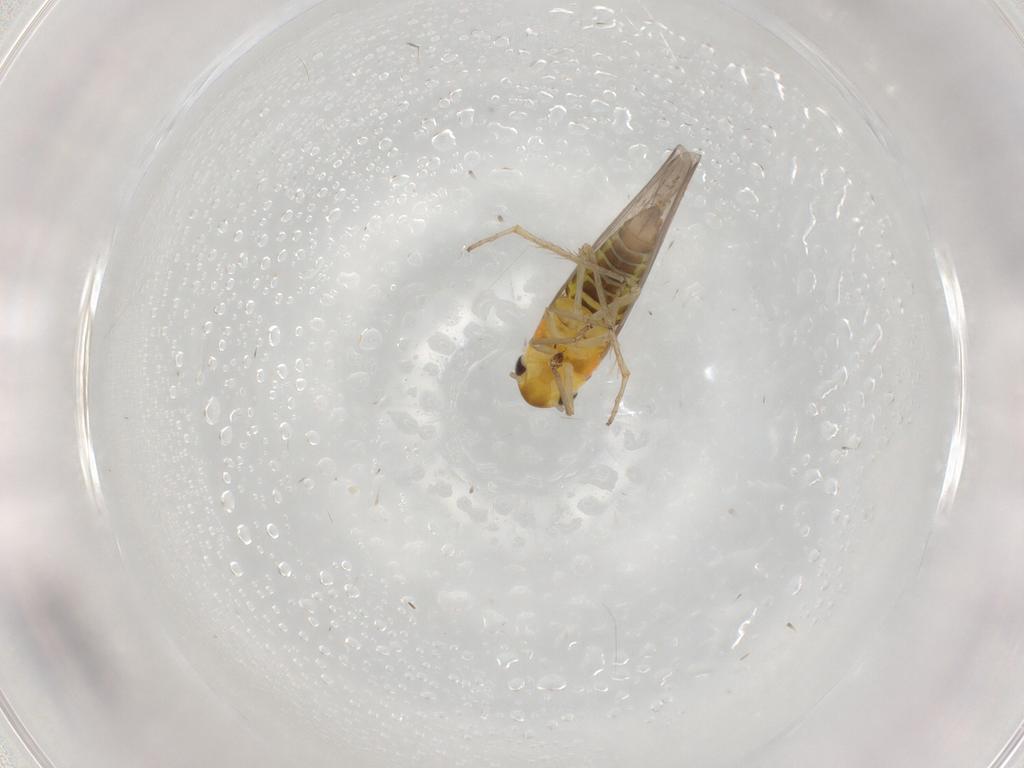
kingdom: Animalia
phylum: Arthropoda
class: Insecta
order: Hemiptera
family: Cicadellidae
